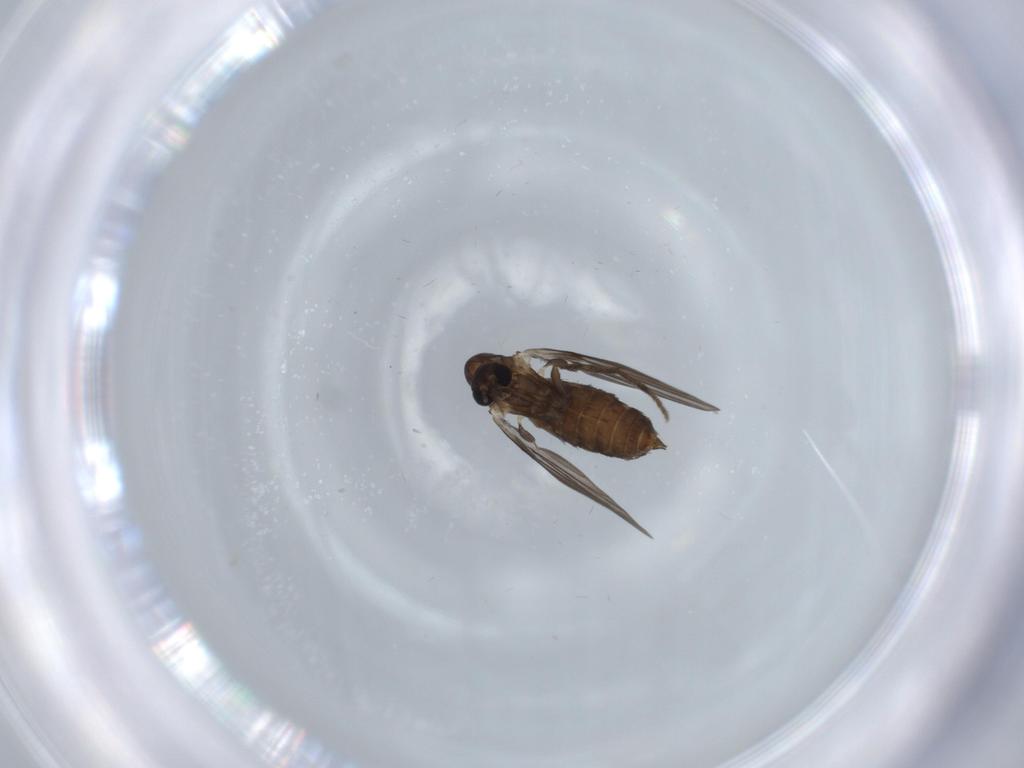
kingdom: Animalia
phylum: Arthropoda
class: Insecta
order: Diptera
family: Psychodidae
